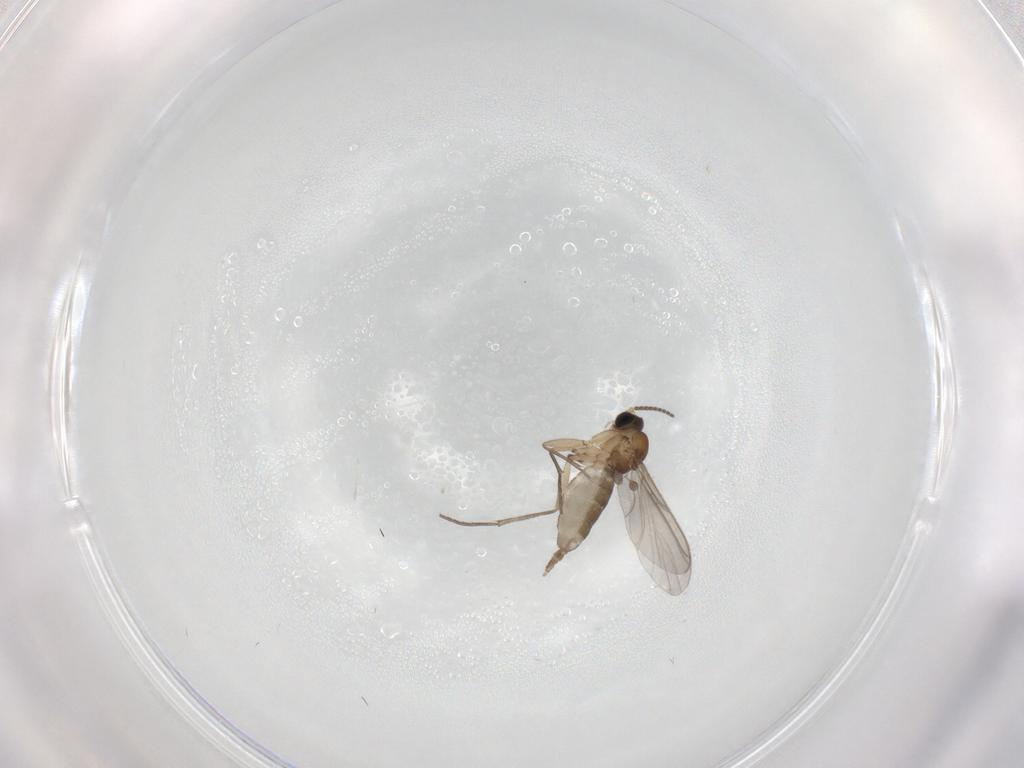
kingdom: Animalia
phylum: Arthropoda
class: Insecta
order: Diptera
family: Sciaridae
